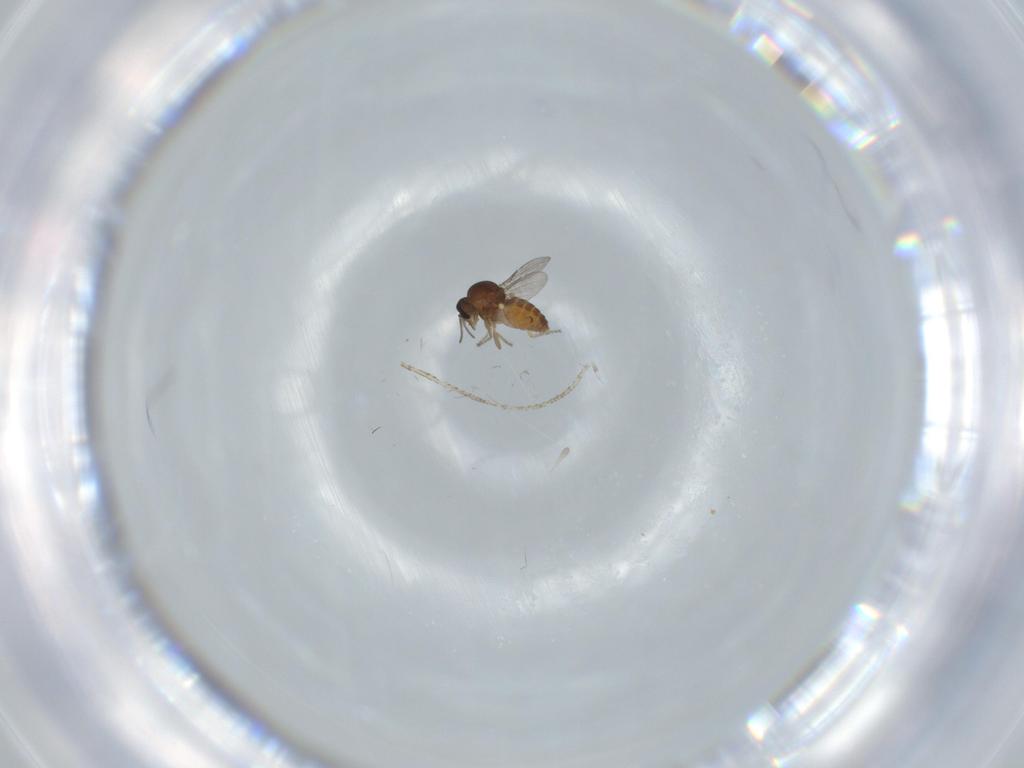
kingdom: Animalia
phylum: Arthropoda
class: Insecta
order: Diptera
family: Ceratopogonidae
